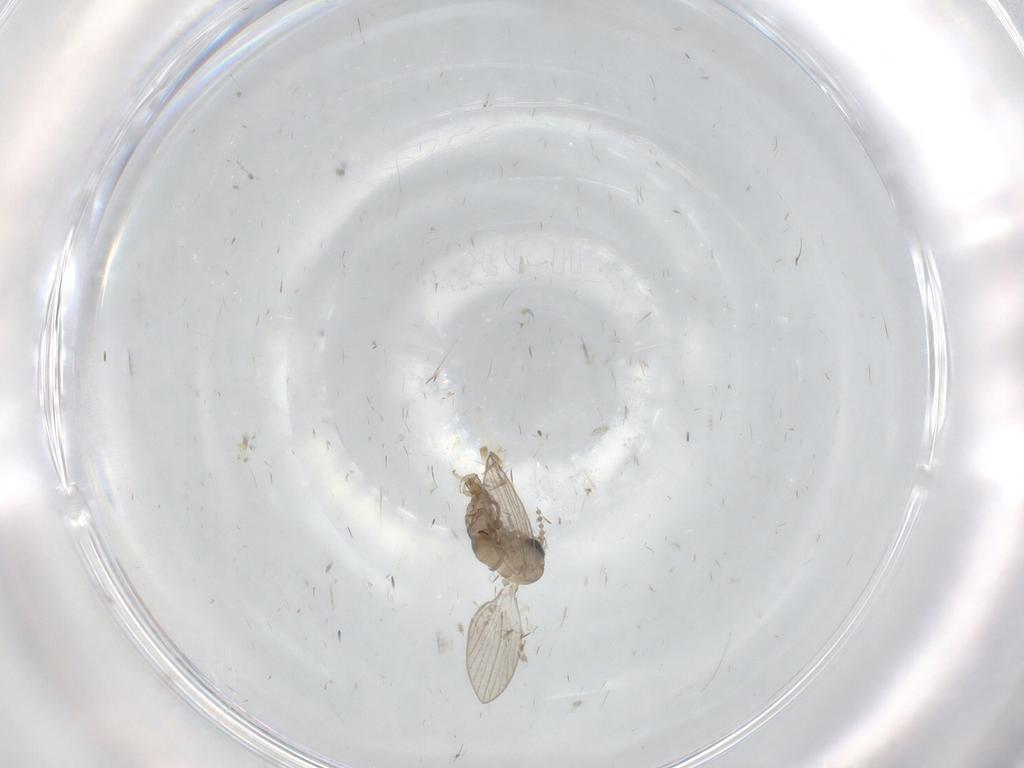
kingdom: Animalia
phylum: Arthropoda
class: Insecta
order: Diptera
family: Psychodidae
